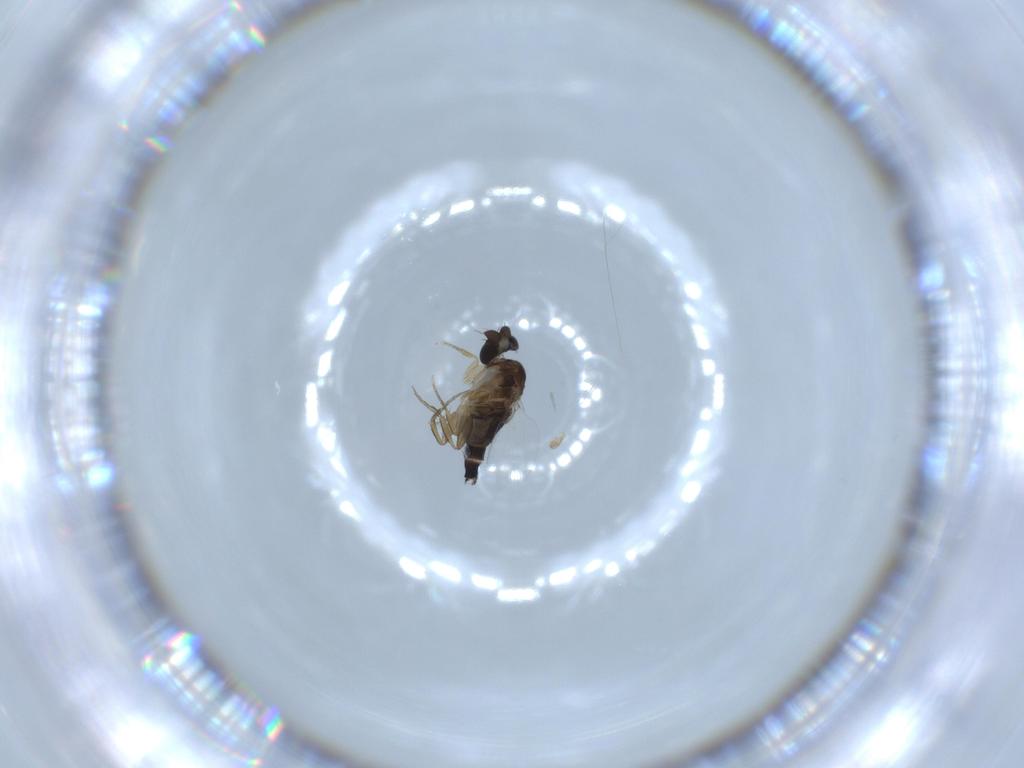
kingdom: Animalia
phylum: Arthropoda
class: Insecta
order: Diptera
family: Phoridae
